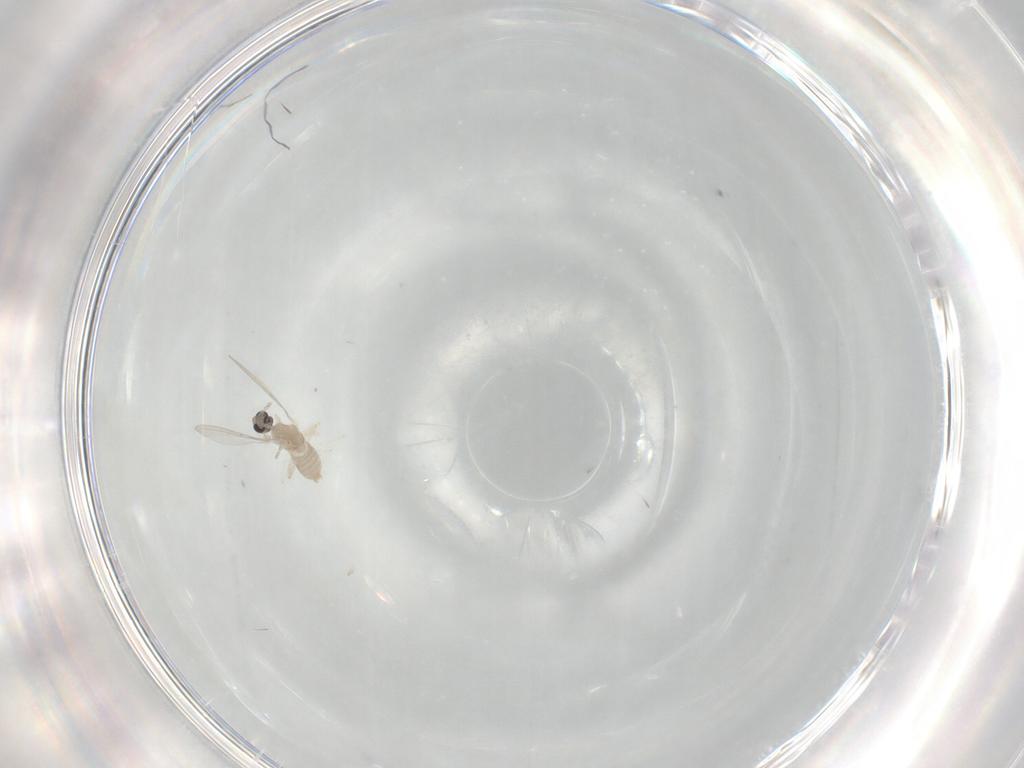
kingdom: Animalia
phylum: Arthropoda
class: Insecta
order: Diptera
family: Cecidomyiidae
